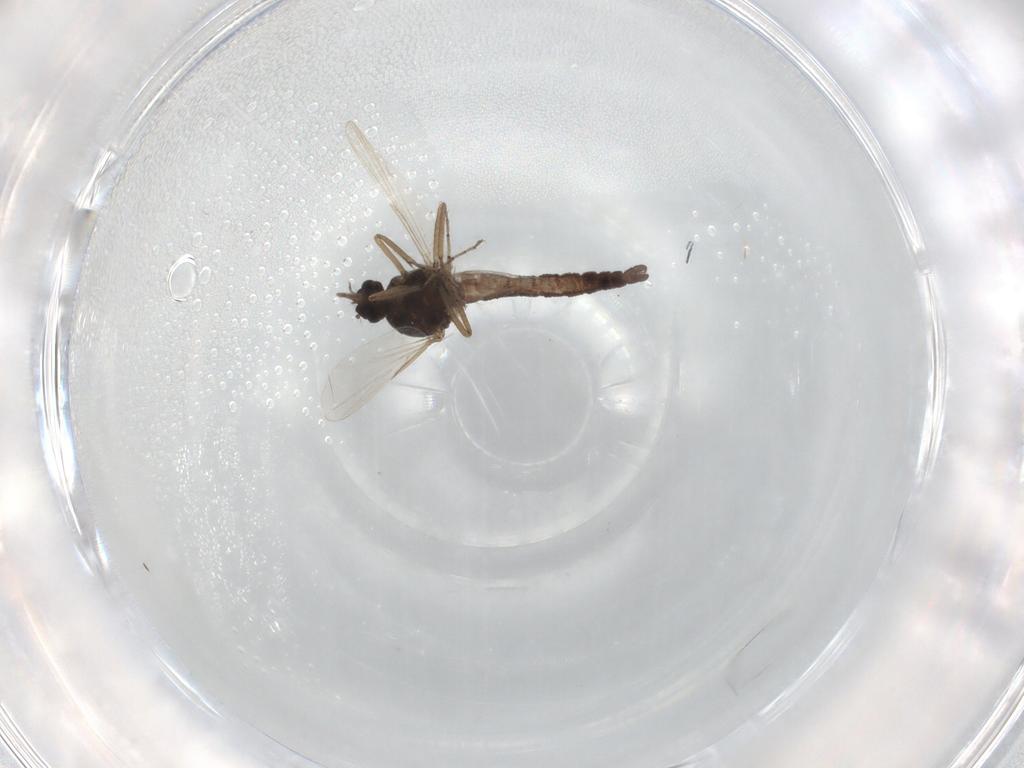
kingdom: Animalia
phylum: Arthropoda
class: Insecta
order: Diptera
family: Ceratopogonidae
